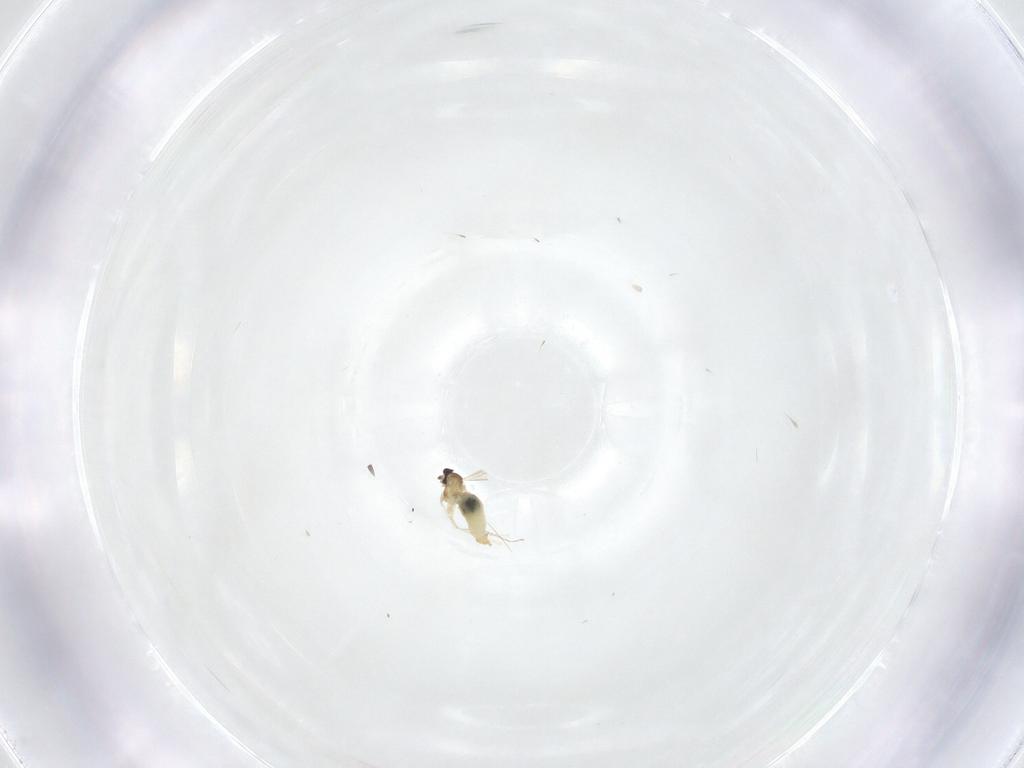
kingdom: Animalia
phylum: Arthropoda
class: Insecta
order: Diptera
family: Cecidomyiidae
